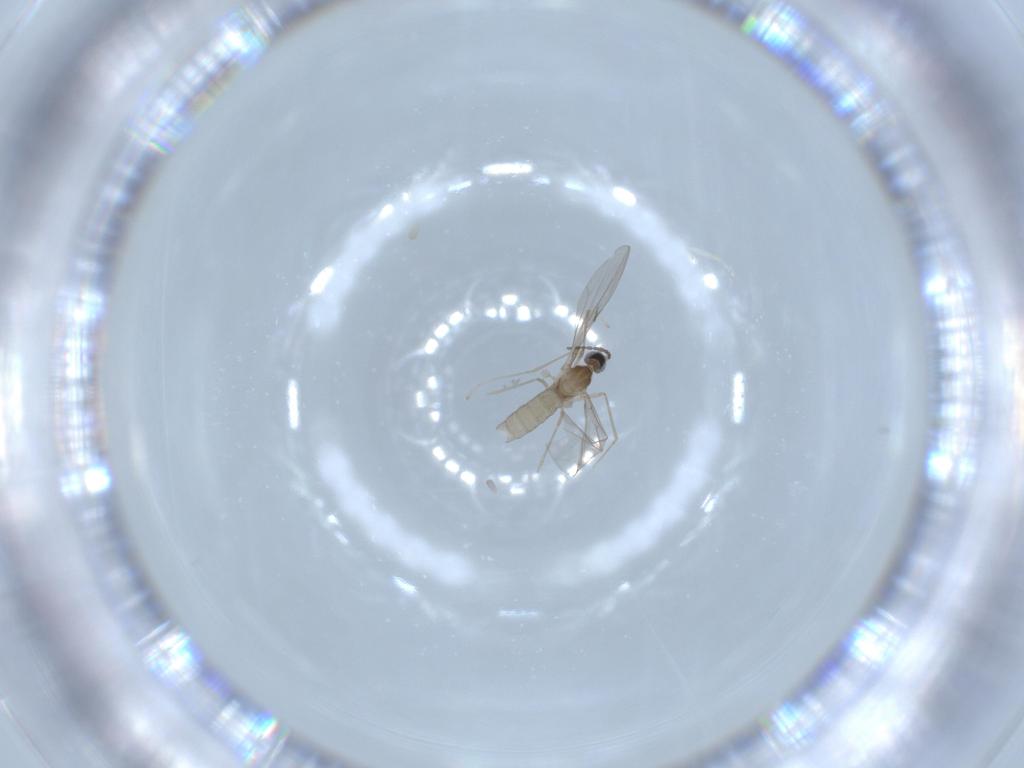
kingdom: Animalia
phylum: Arthropoda
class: Insecta
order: Diptera
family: Cecidomyiidae
